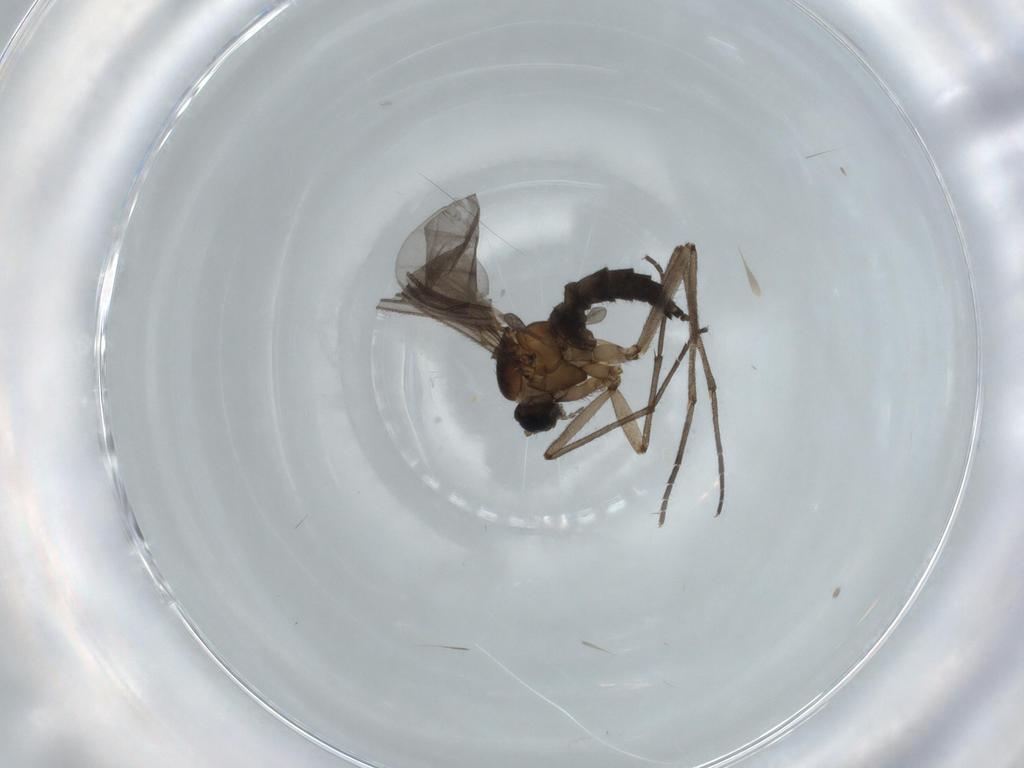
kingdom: Animalia
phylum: Arthropoda
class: Insecta
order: Diptera
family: Sciaridae
